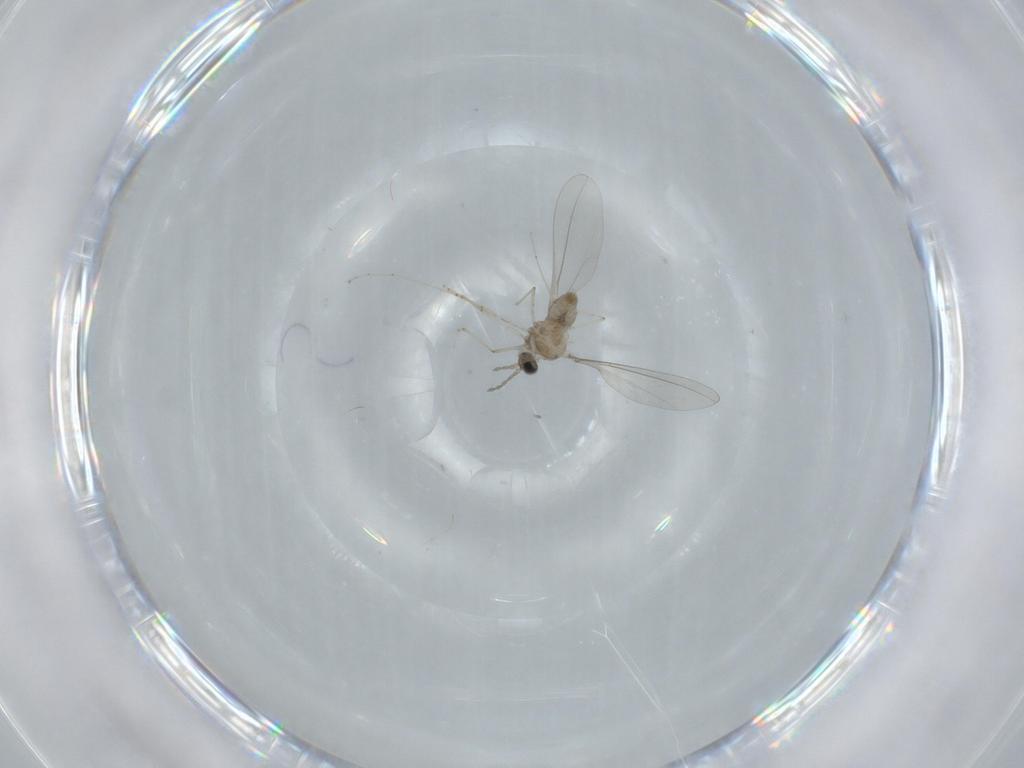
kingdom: Animalia
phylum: Arthropoda
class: Insecta
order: Diptera
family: Cecidomyiidae
